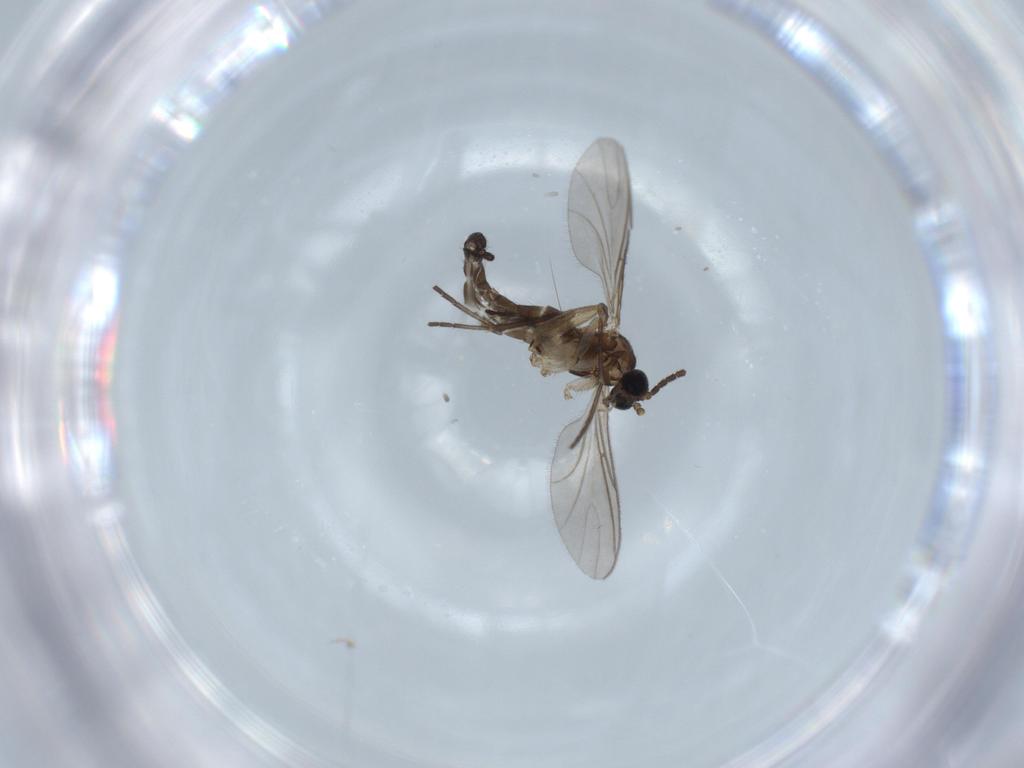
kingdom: Animalia
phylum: Arthropoda
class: Insecta
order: Diptera
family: Sciaridae
